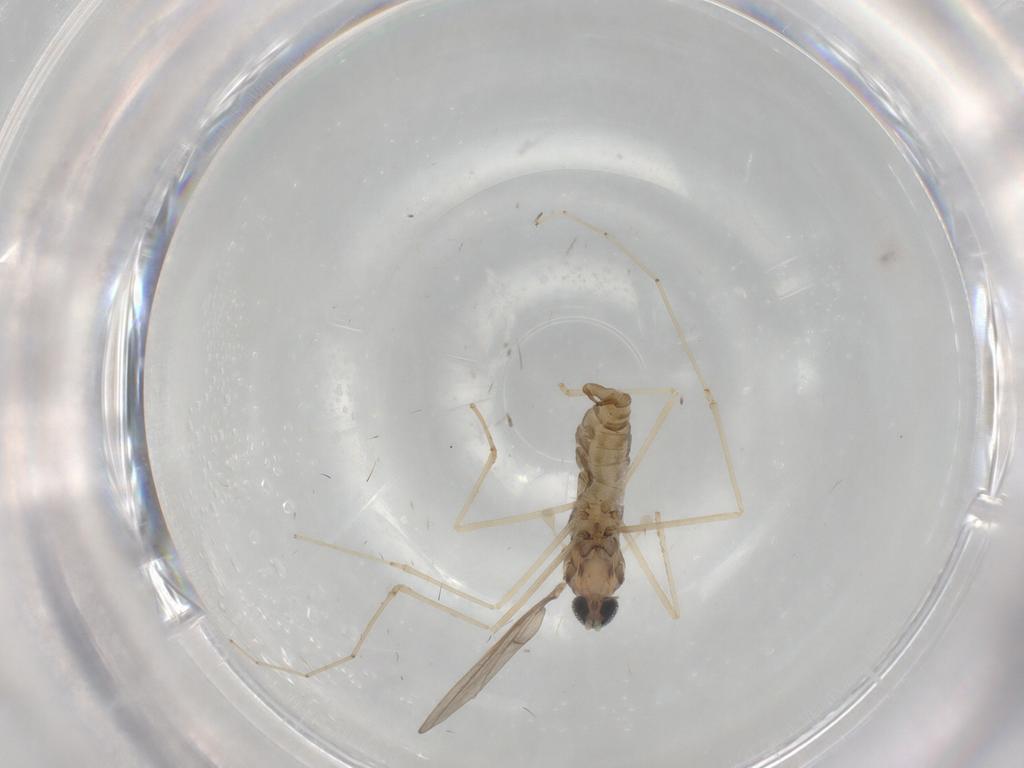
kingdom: Animalia
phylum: Arthropoda
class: Insecta
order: Diptera
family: Cecidomyiidae
